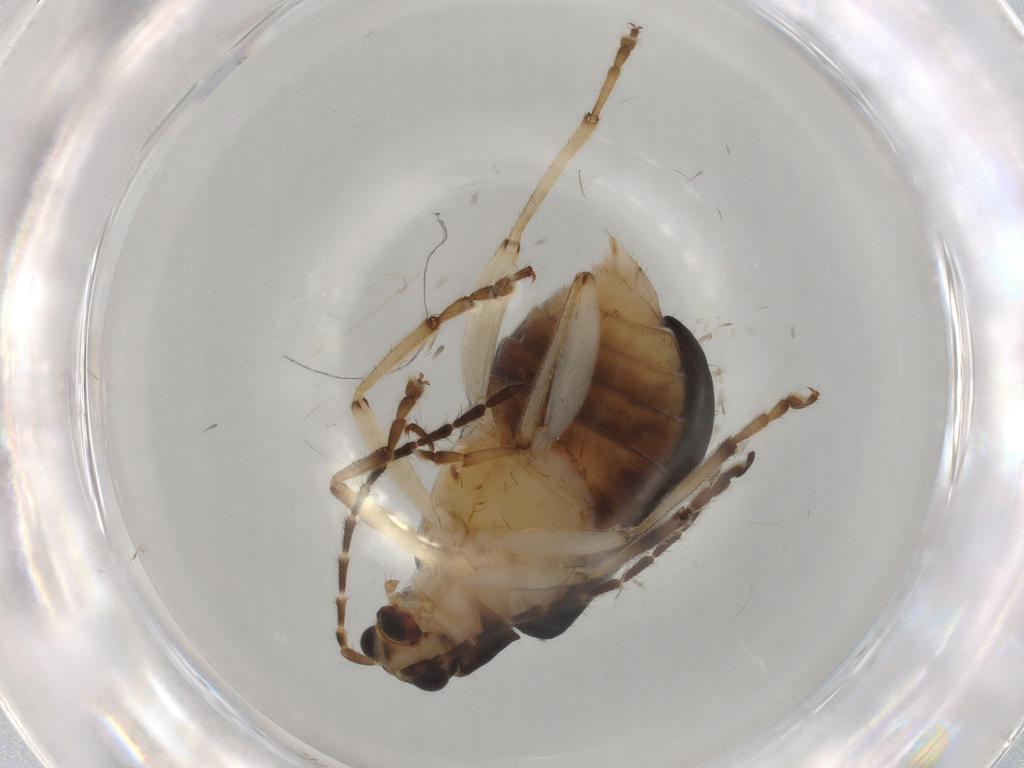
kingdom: Animalia
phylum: Arthropoda
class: Insecta
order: Coleoptera
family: Chrysomelidae
